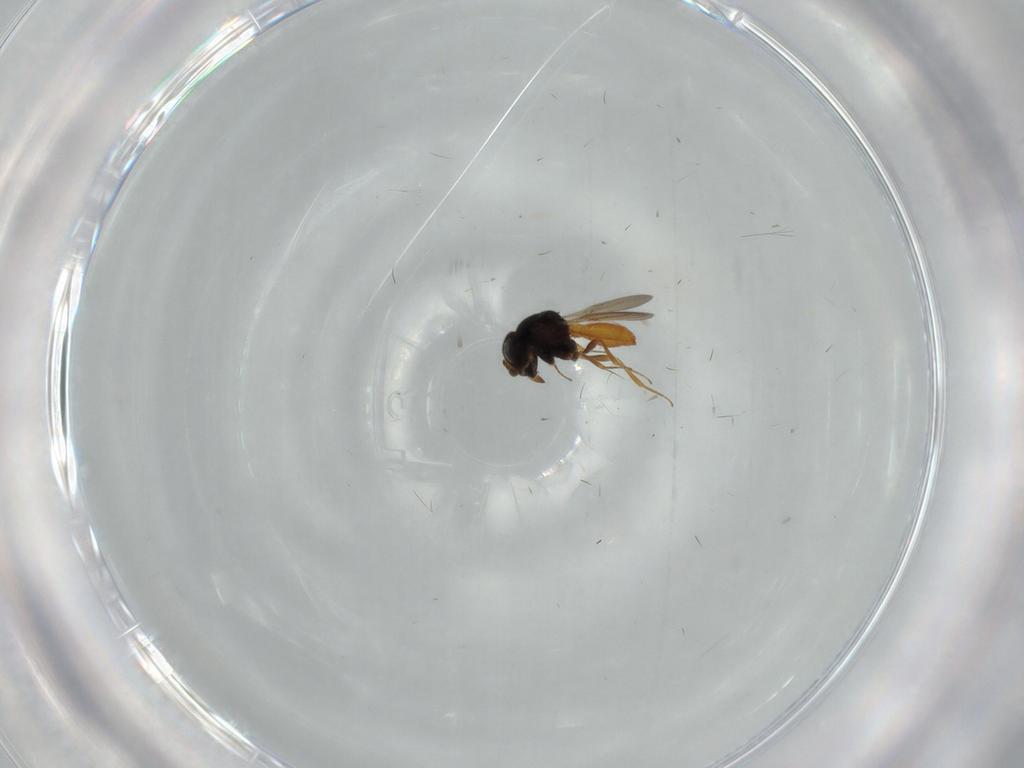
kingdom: Animalia
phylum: Arthropoda
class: Insecta
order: Hymenoptera
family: Scelionidae
